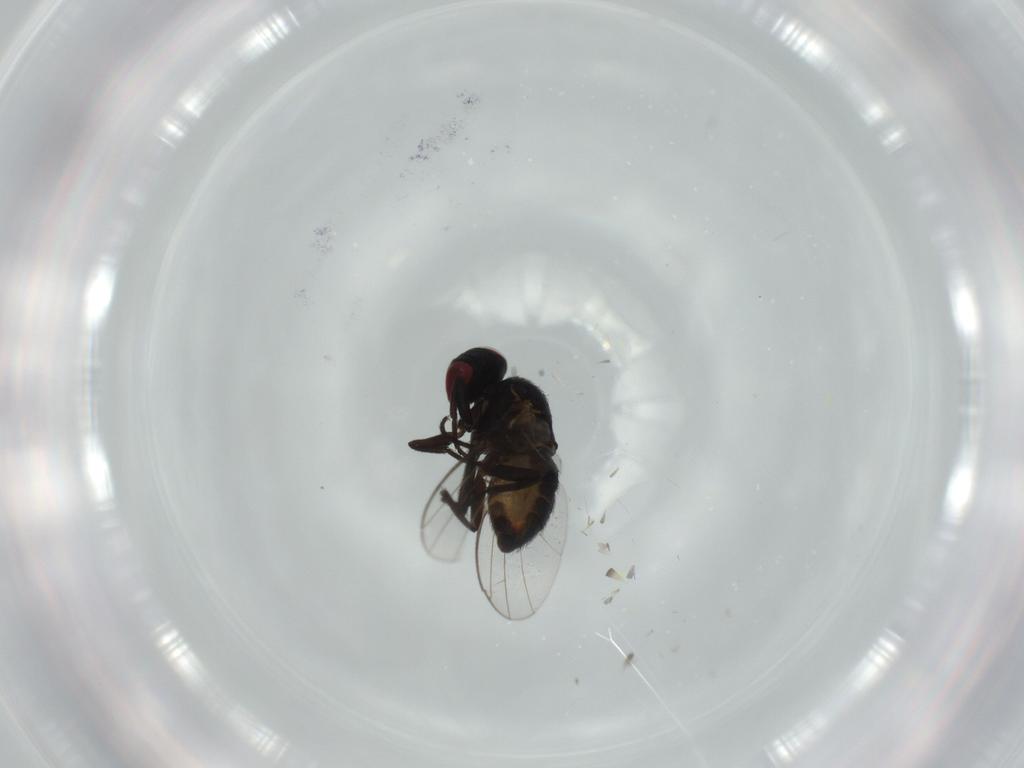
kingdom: Animalia
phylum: Arthropoda
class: Insecta
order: Diptera
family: Agromyzidae
